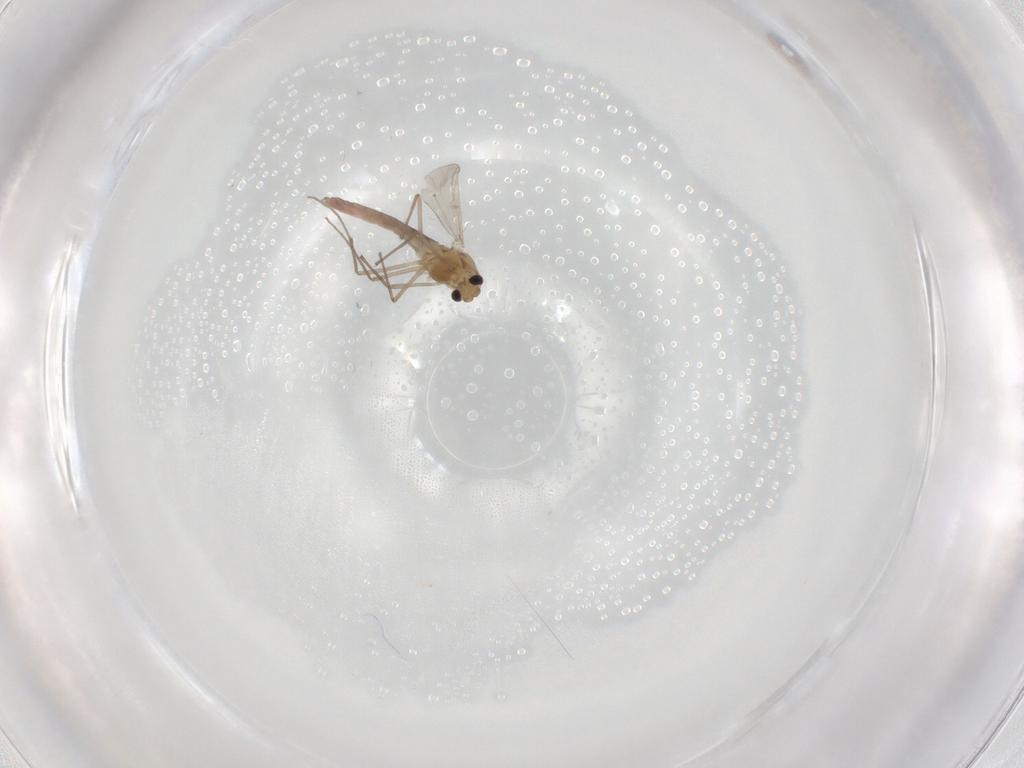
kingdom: Animalia
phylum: Arthropoda
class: Insecta
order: Diptera
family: Chironomidae
